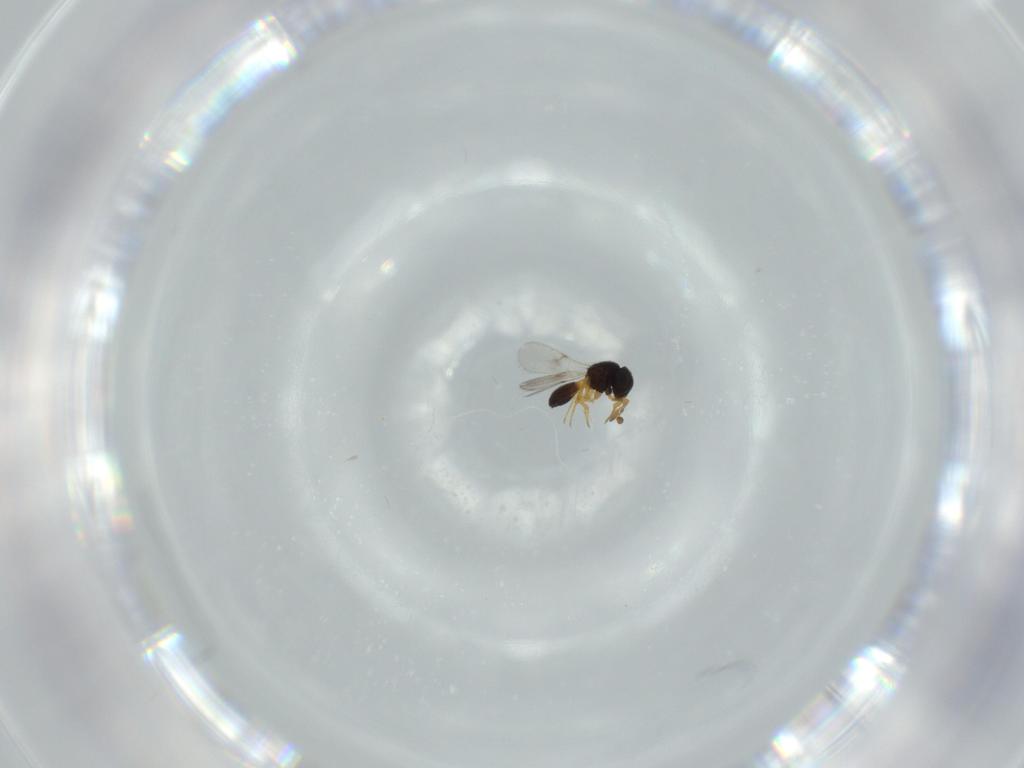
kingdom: Animalia
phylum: Arthropoda
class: Insecta
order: Hymenoptera
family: Scelionidae
